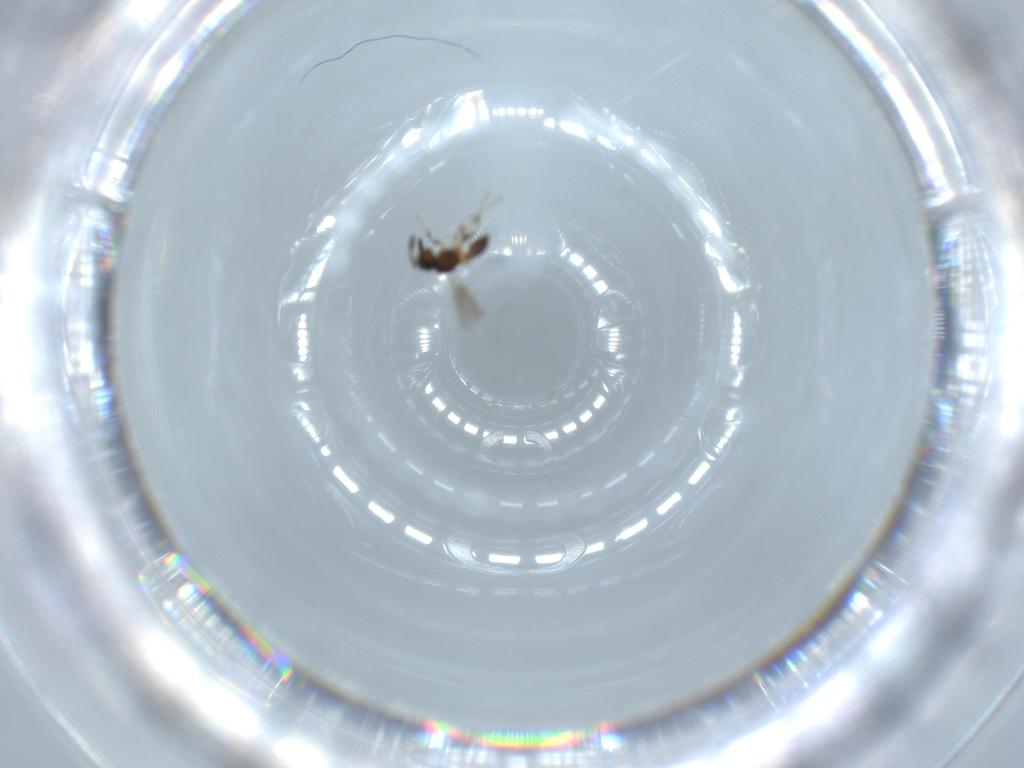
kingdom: Animalia
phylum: Arthropoda
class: Insecta
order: Hymenoptera
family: Scelionidae
